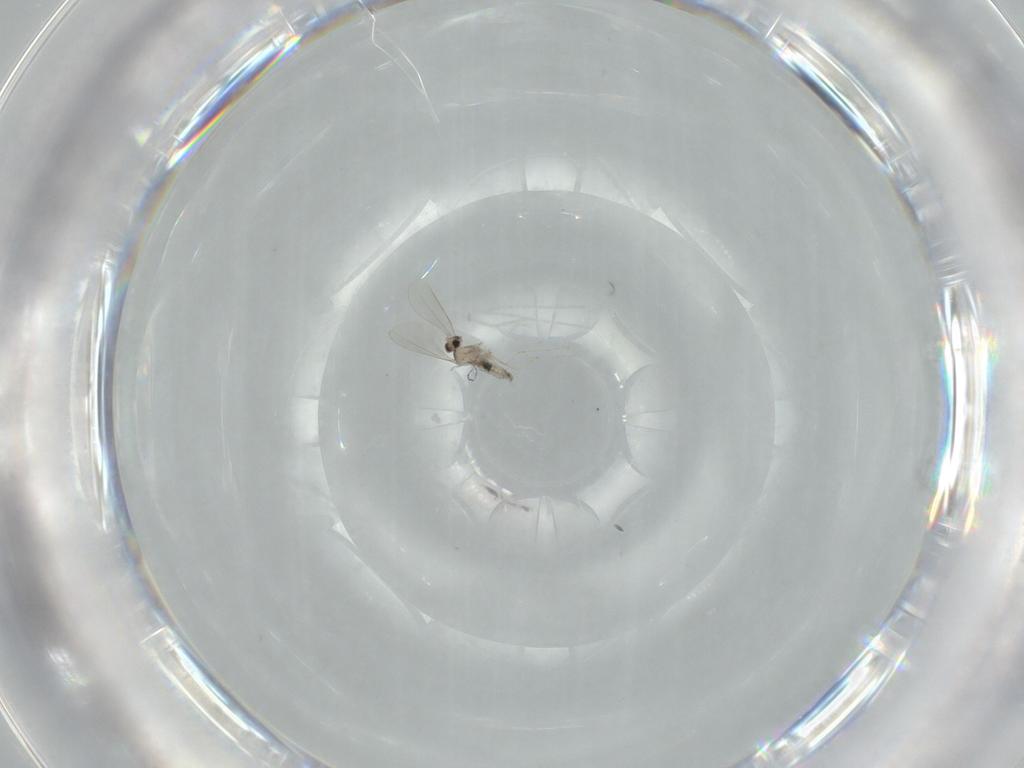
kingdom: Animalia
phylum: Arthropoda
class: Insecta
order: Diptera
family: Cecidomyiidae
